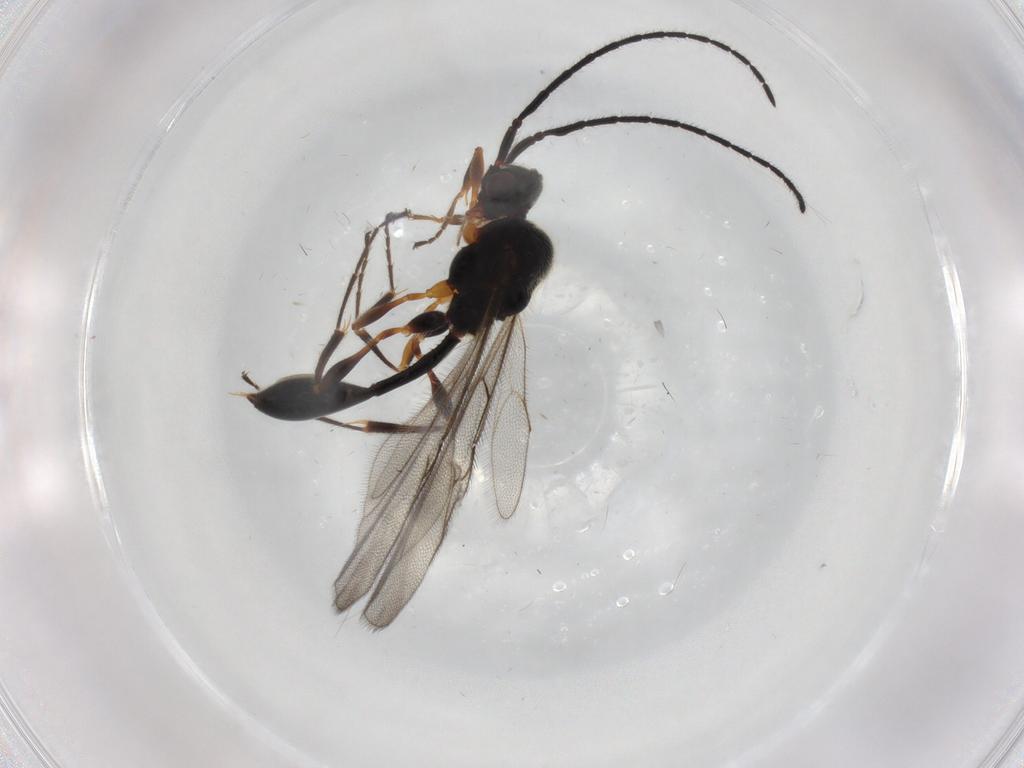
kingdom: Animalia
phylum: Arthropoda
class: Insecta
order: Hymenoptera
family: Diapriidae
